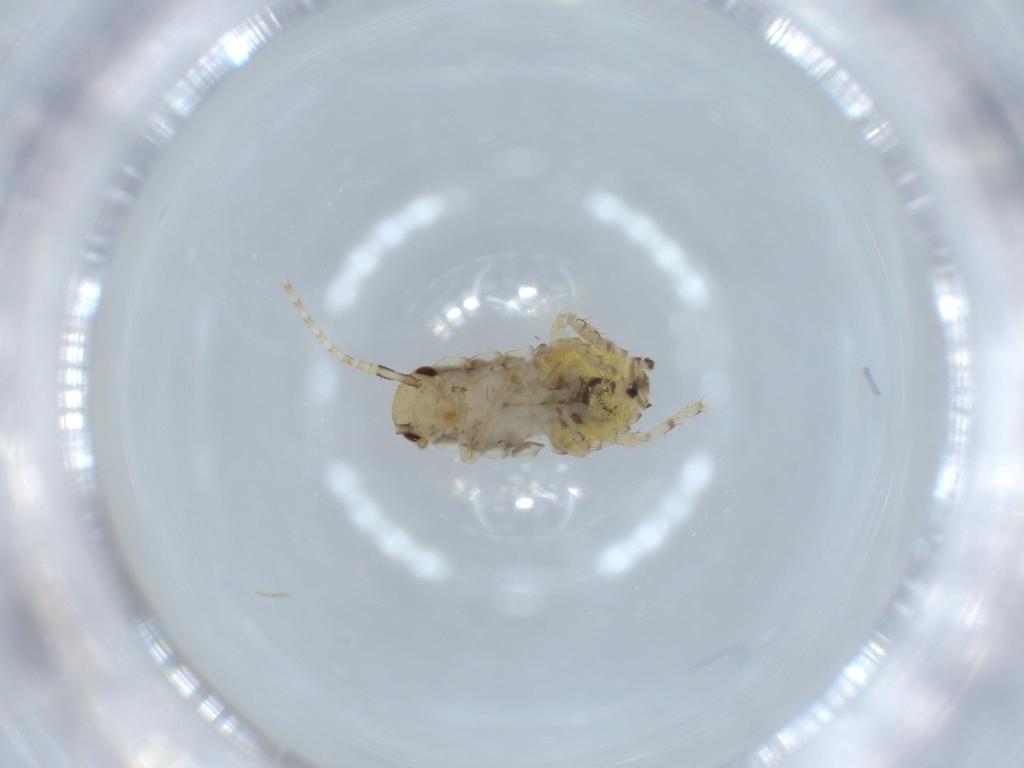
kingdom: Animalia
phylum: Arthropoda
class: Insecta
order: Blattodea
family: Ectobiidae
